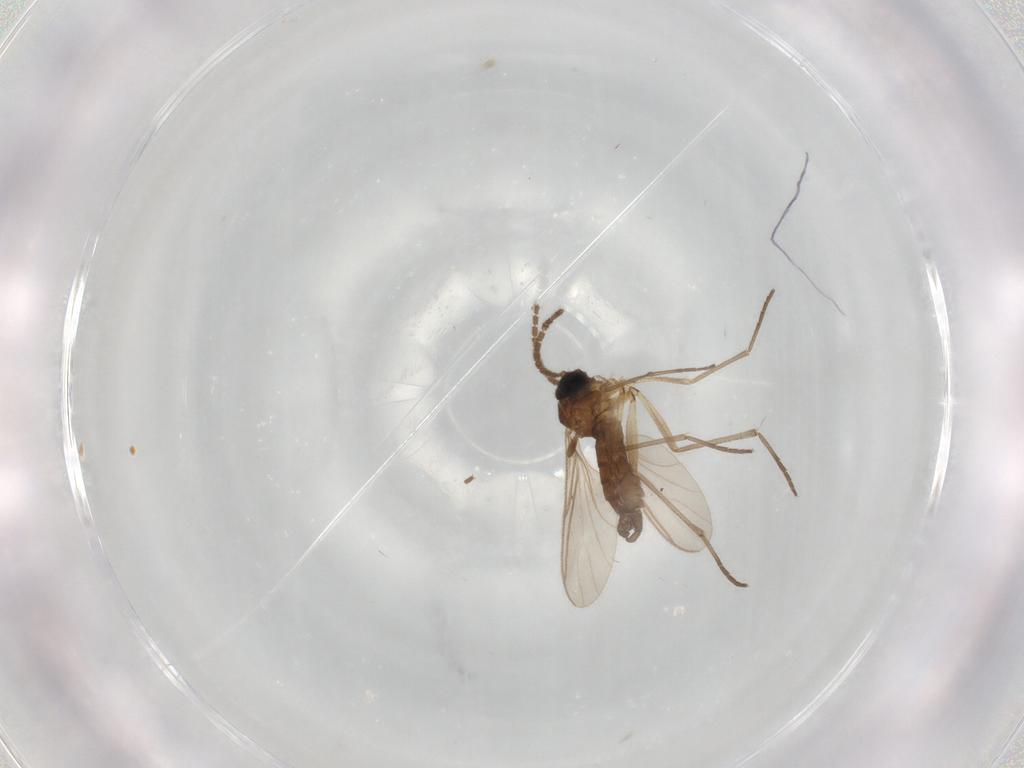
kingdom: Animalia
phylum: Arthropoda
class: Insecta
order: Diptera
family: Sciaridae
